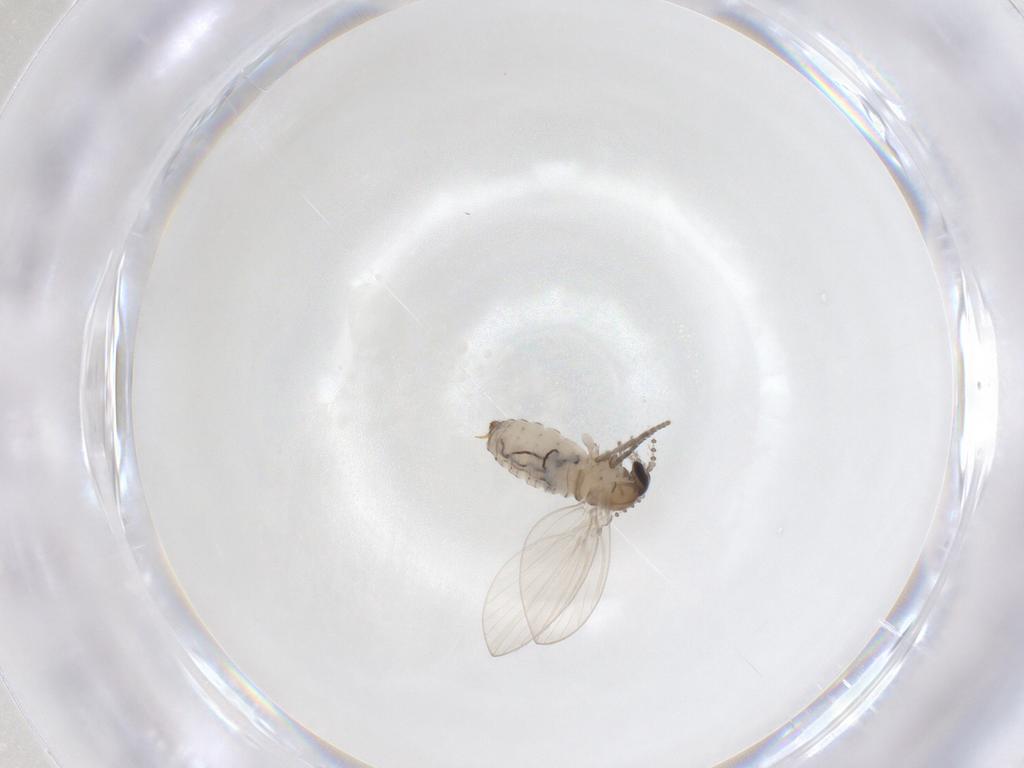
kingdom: Animalia
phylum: Arthropoda
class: Insecta
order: Diptera
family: Psychodidae
